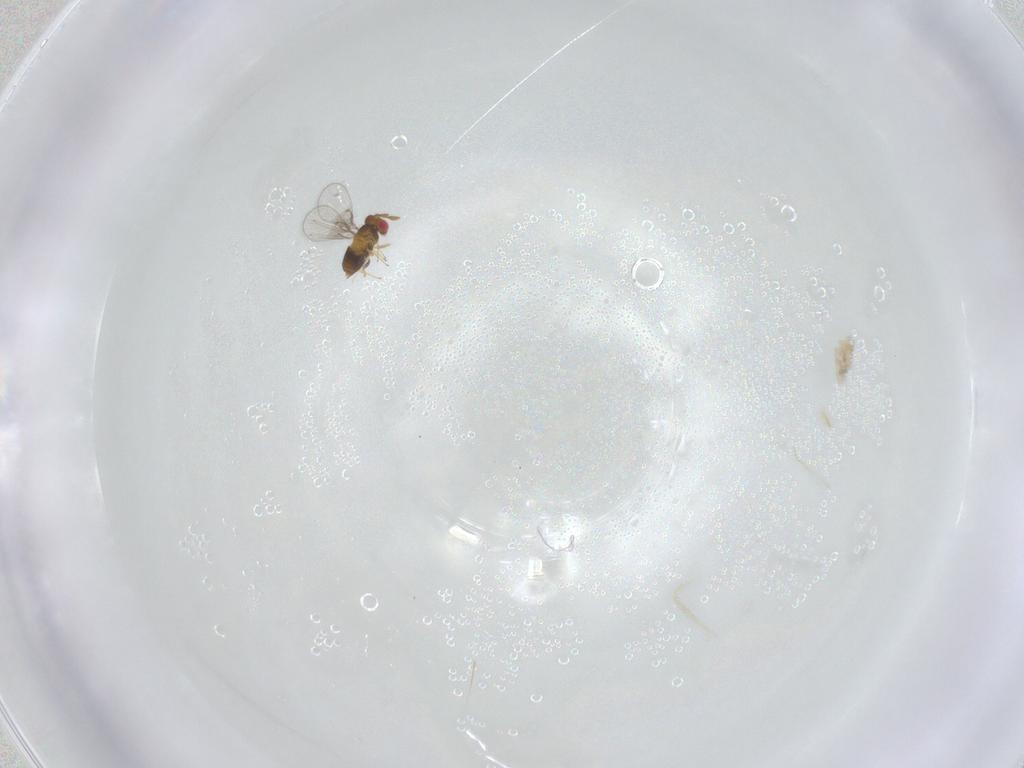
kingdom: Animalia
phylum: Arthropoda
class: Insecta
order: Hymenoptera
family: Trichogrammatidae
